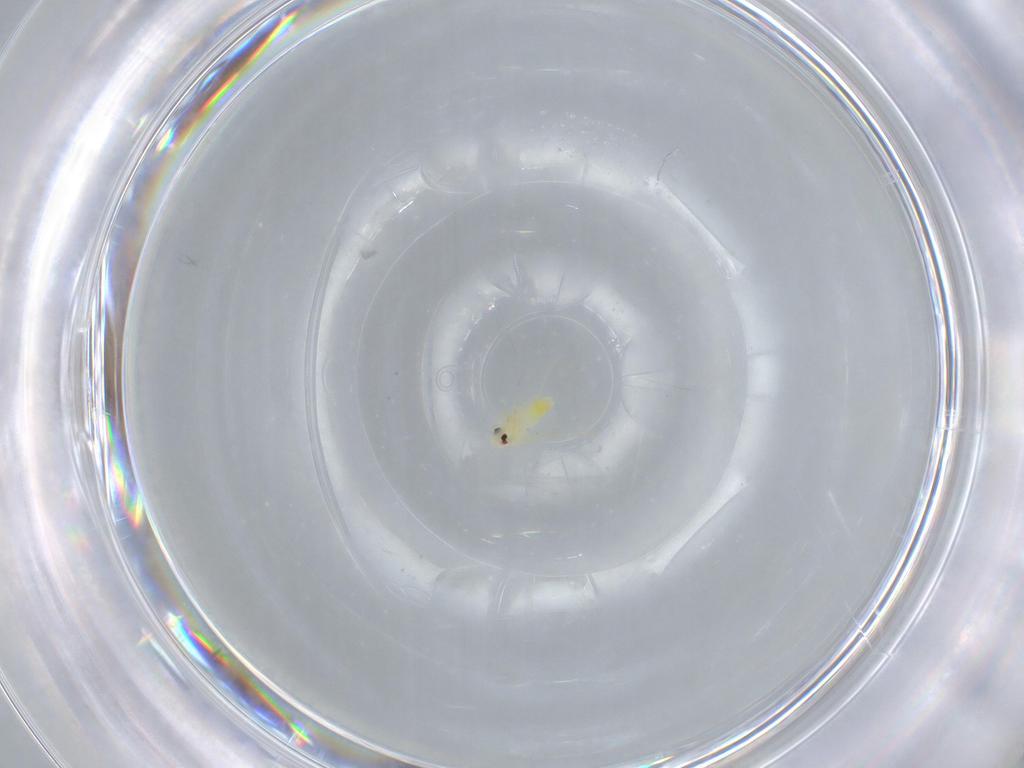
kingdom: Animalia
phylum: Arthropoda
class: Insecta
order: Hemiptera
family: Aleyrodidae
